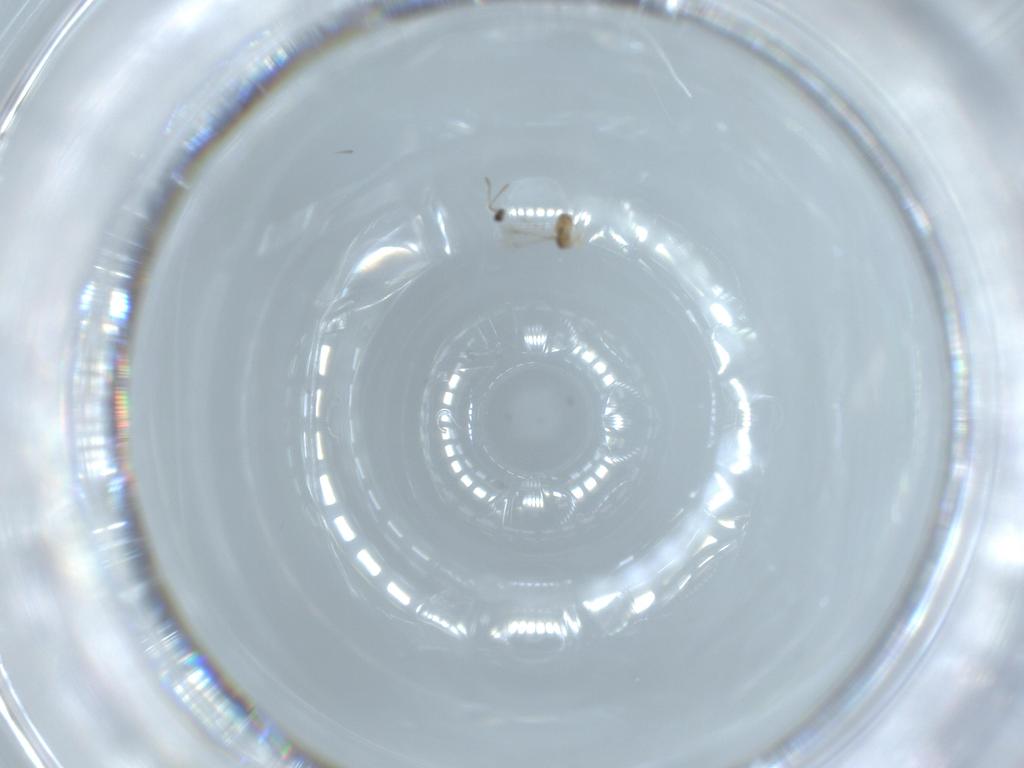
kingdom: Animalia
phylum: Arthropoda
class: Insecta
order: Hymenoptera
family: Mymaridae
